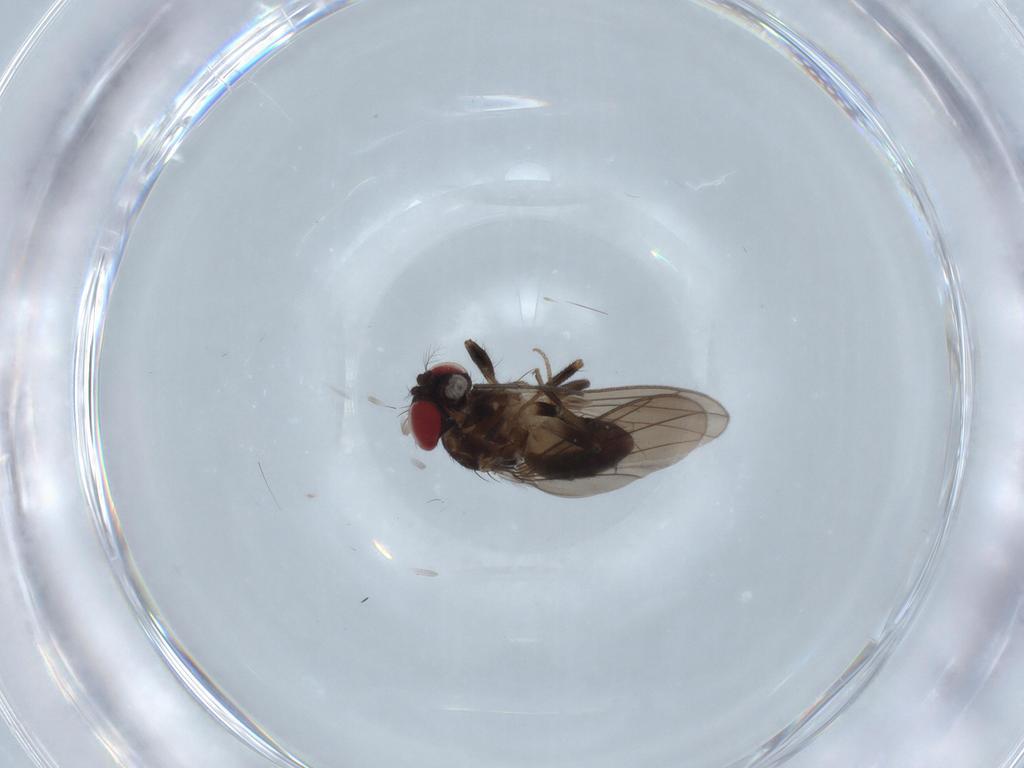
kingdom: Animalia
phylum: Arthropoda
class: Insecta
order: Diptera
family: Drosophilidae
